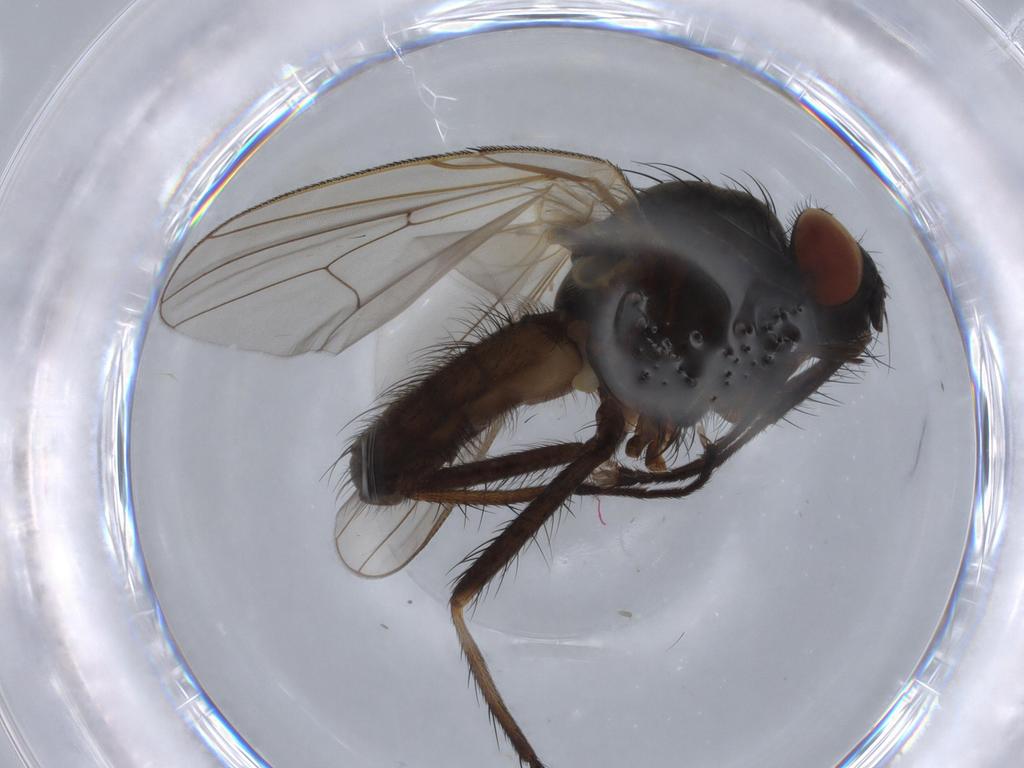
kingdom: Animalia
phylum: Arthropoda
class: Insecta
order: Diptera
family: Anthomyiidae
